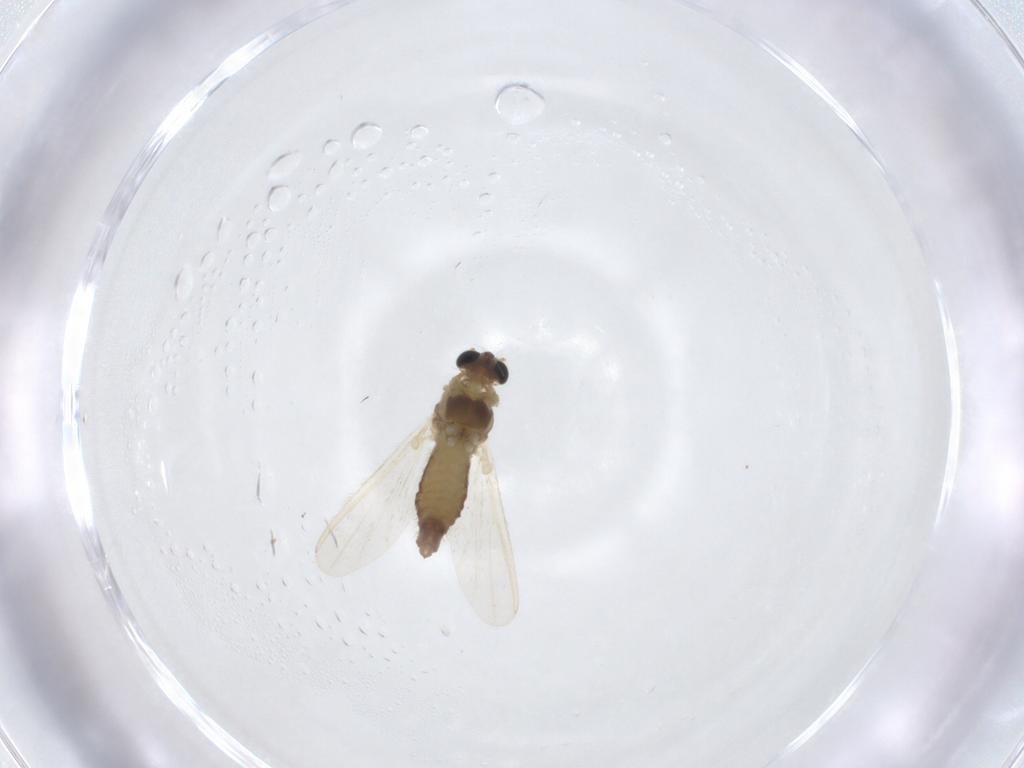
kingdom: Animalia
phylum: Arthropoda
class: Insecta
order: Diptera
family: Chironomidae
